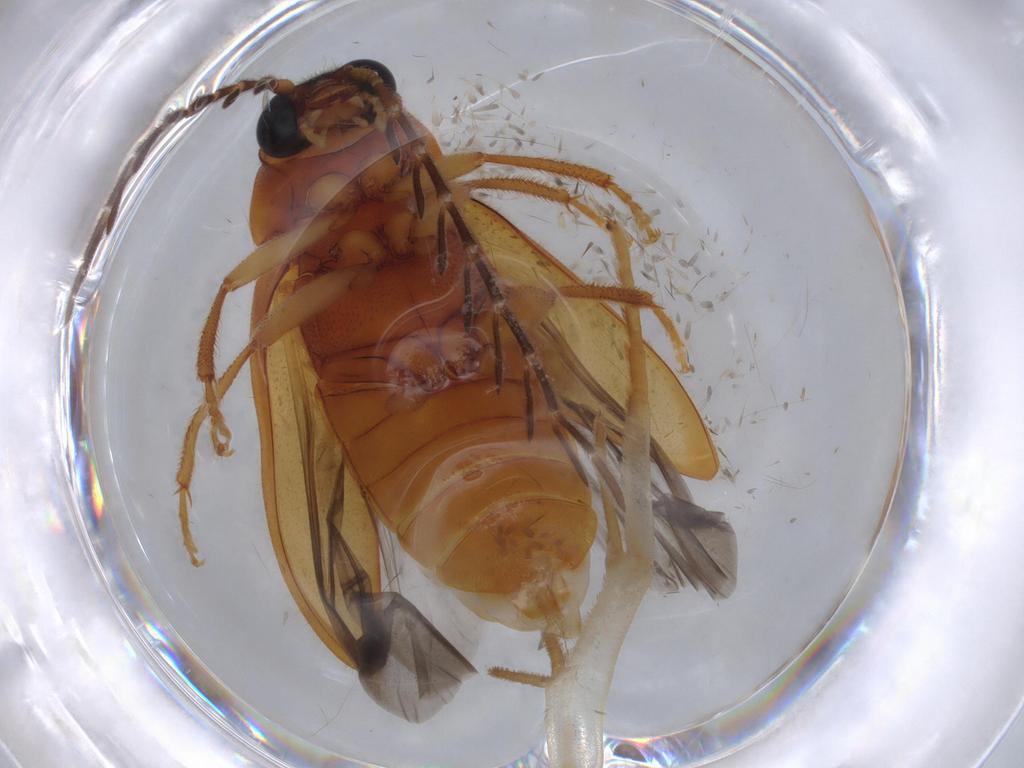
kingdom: Animalia
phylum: Arthropoda
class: Insecta
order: Coleoptera
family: Ptilodactylidae
